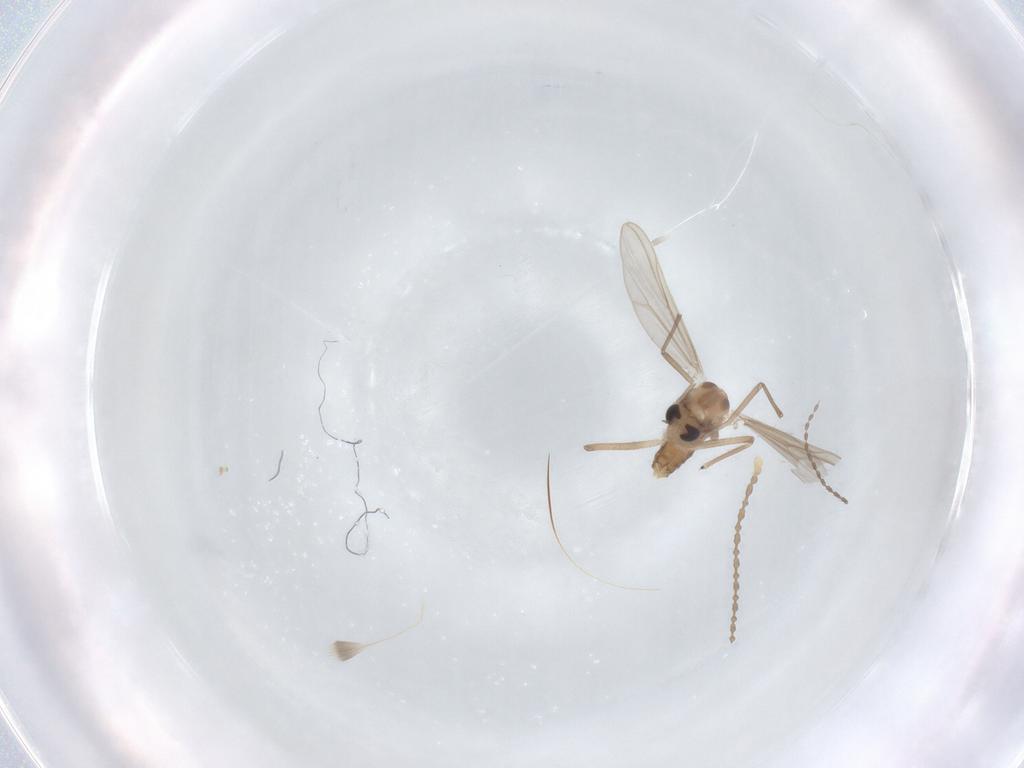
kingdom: Animalia
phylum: Arthropoda
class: Insecta
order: Diptera
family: Chironomidae
